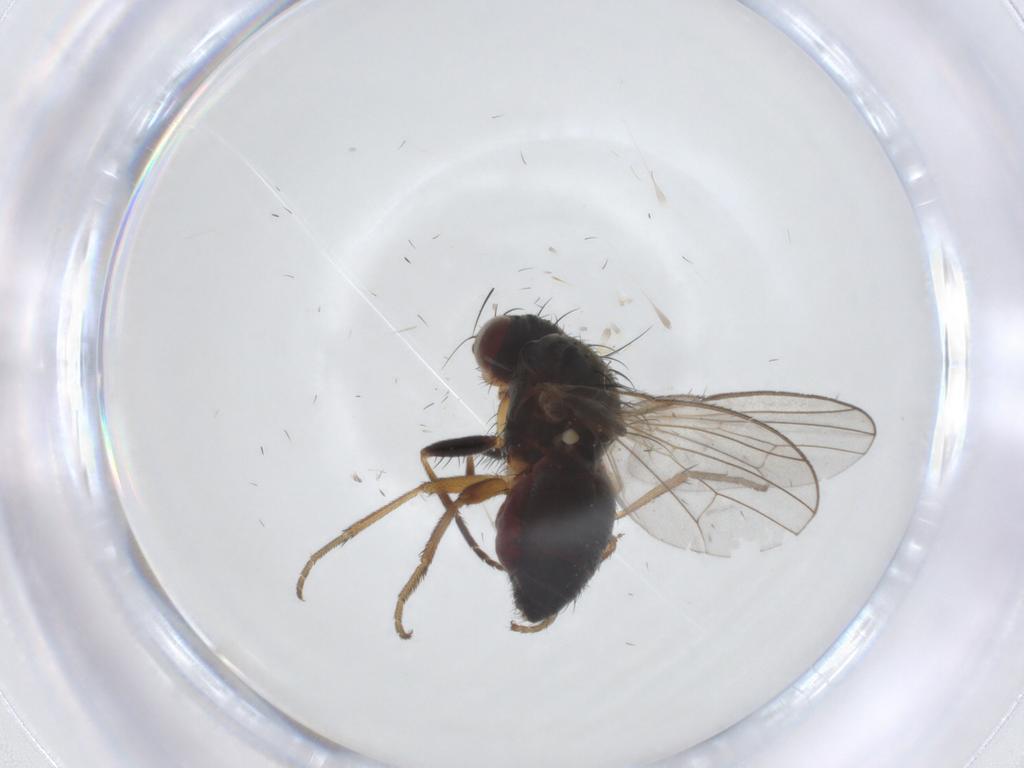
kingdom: Animalia
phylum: Arthropoda
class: Insecta
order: Diptera
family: Heleomyzidae
